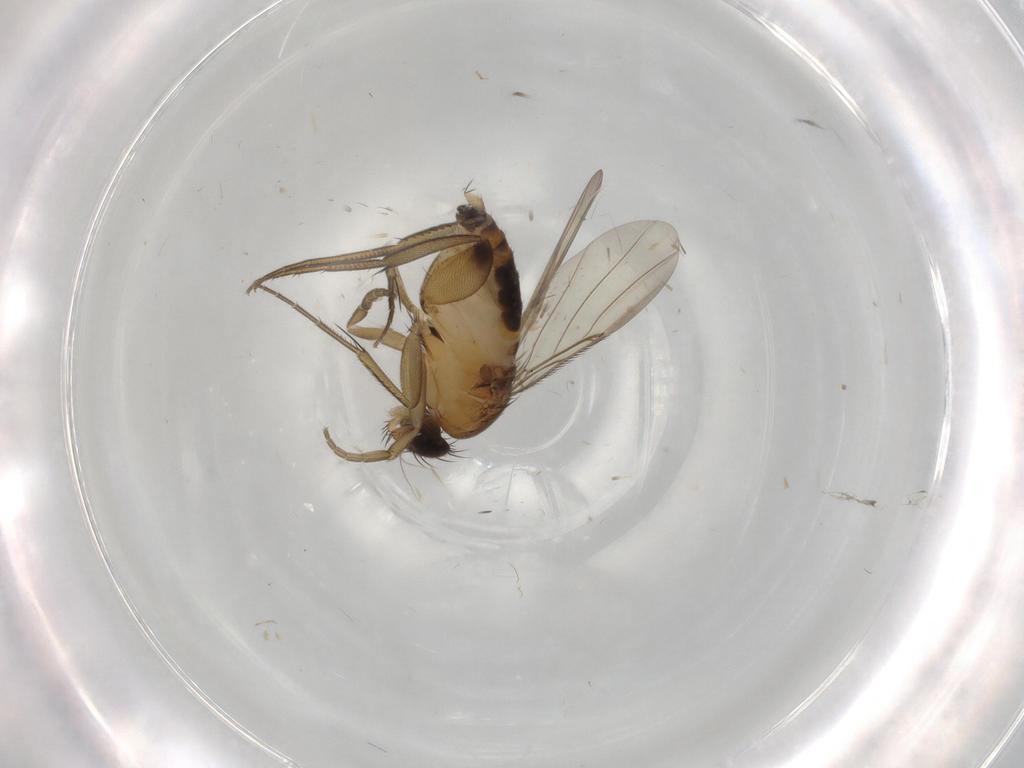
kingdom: Animalia
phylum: Arthropoda
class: Insecta
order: Diptera
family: Phoridae
